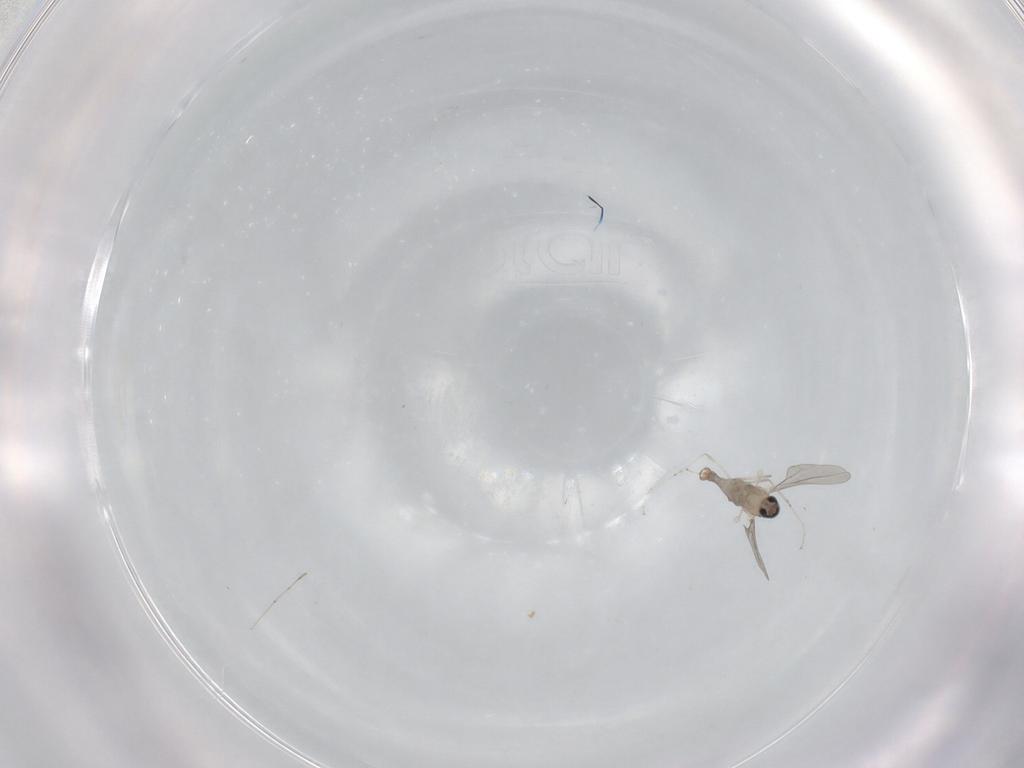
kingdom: Animalia
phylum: Arthropoda
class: Insecta
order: Diptera
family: Cecidomyiidae
